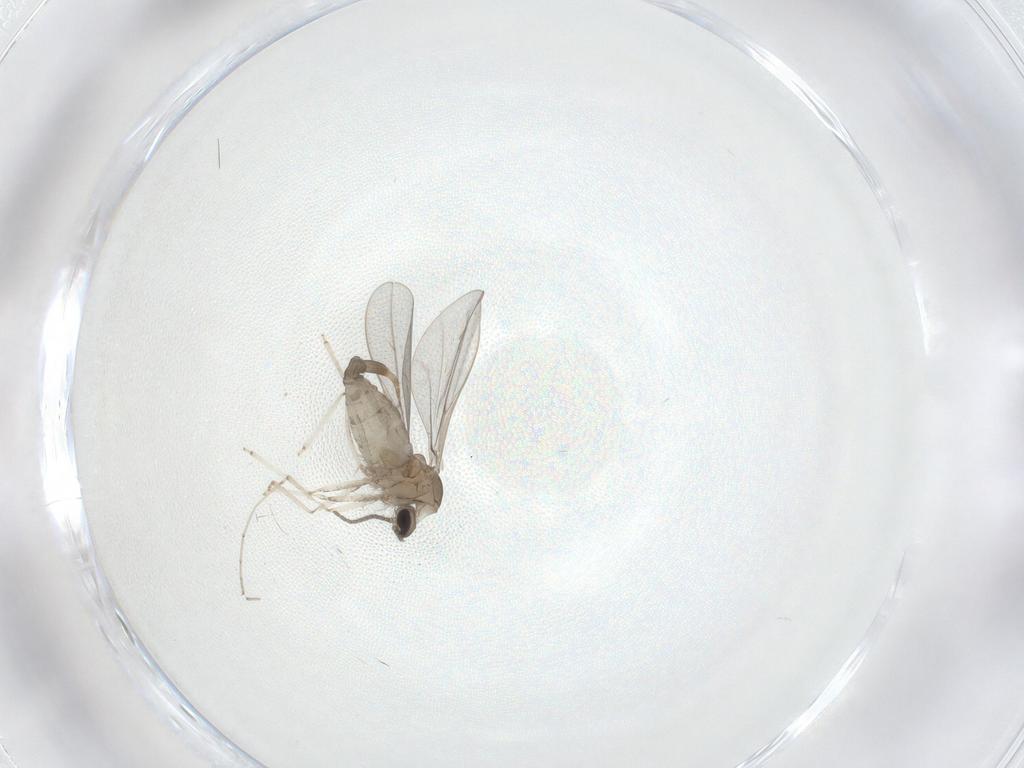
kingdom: Animalia
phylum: Arthropoda
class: Insecta
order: Diptera
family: Cecidomyiidae
